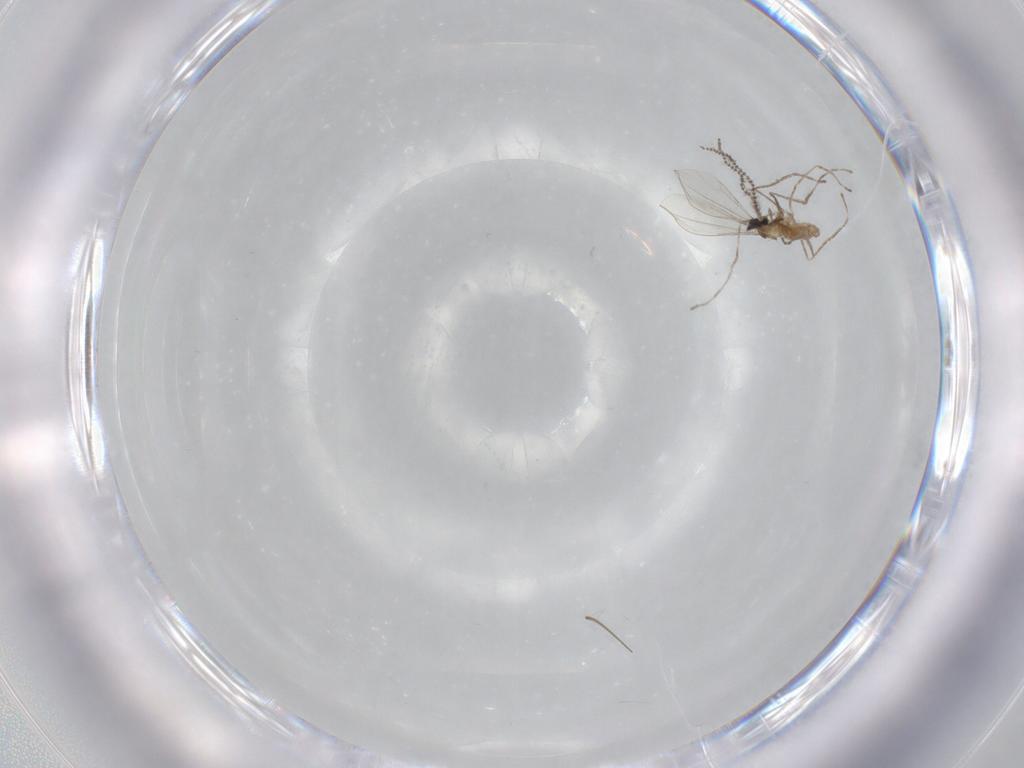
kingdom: Animalia
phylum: Arthropoda
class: Insecta
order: Diptera
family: Chironomidae
